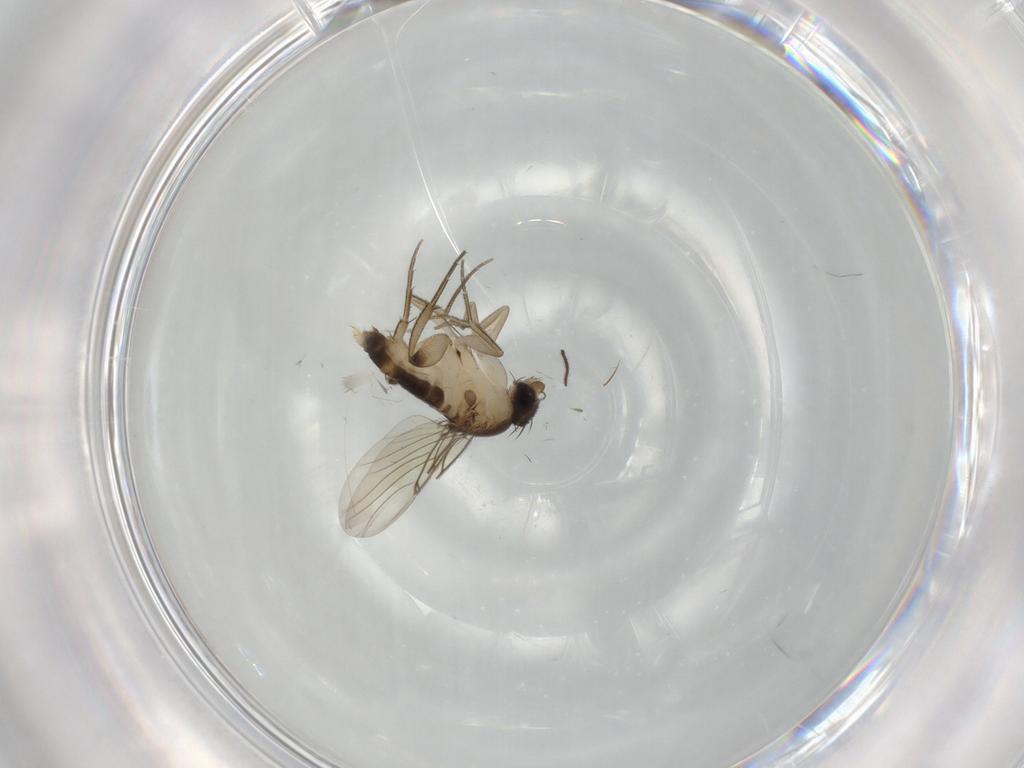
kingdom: Animalia
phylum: Arthropoda
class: Insecta
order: Diptera
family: Phoridae
